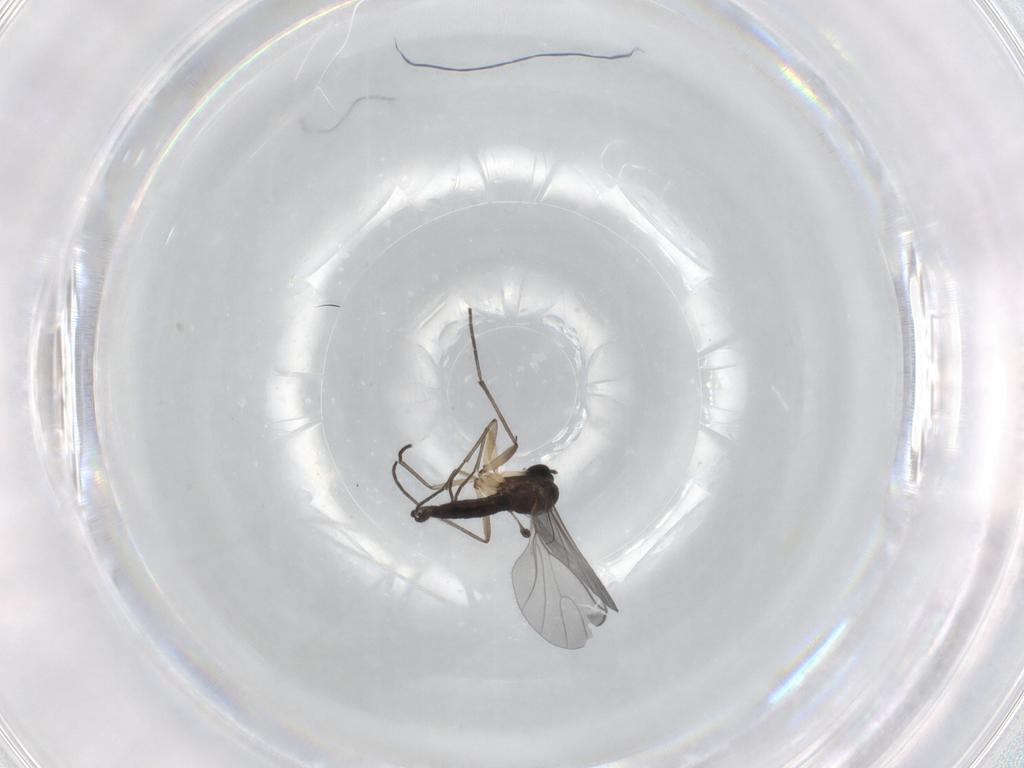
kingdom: Animalia
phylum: Arthropoda
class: Insecta
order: Diptera
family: Sciaridae
